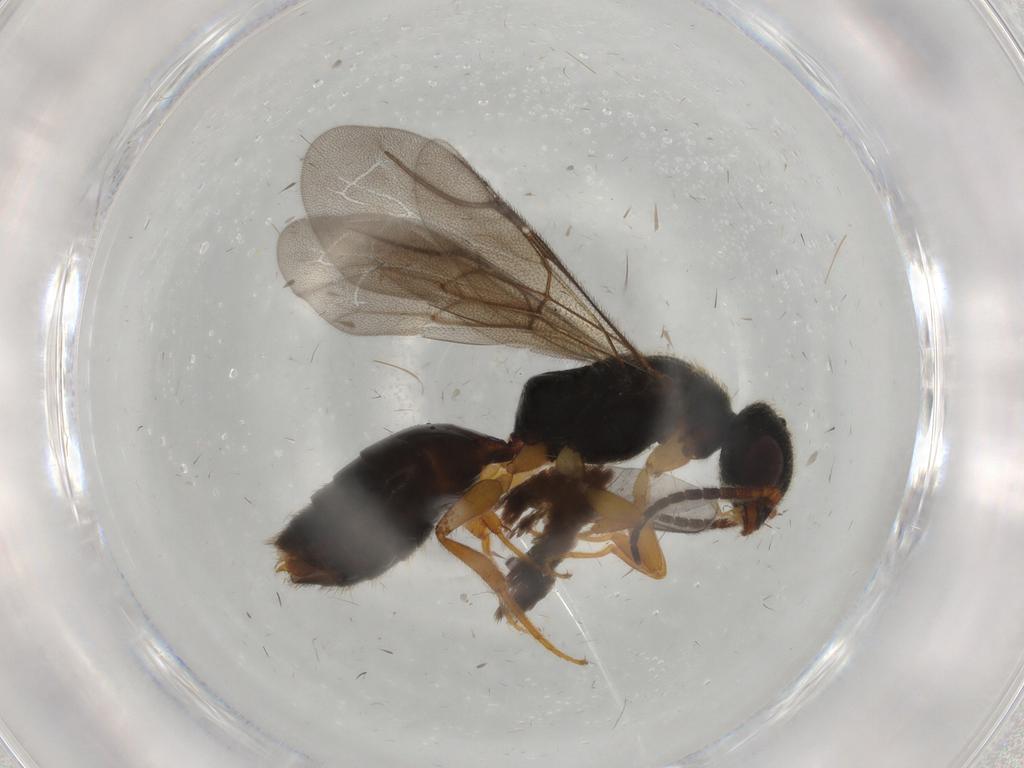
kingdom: Animalia
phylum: Arthropoda
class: Insecta
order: Hymenoptera
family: Bethylidae
